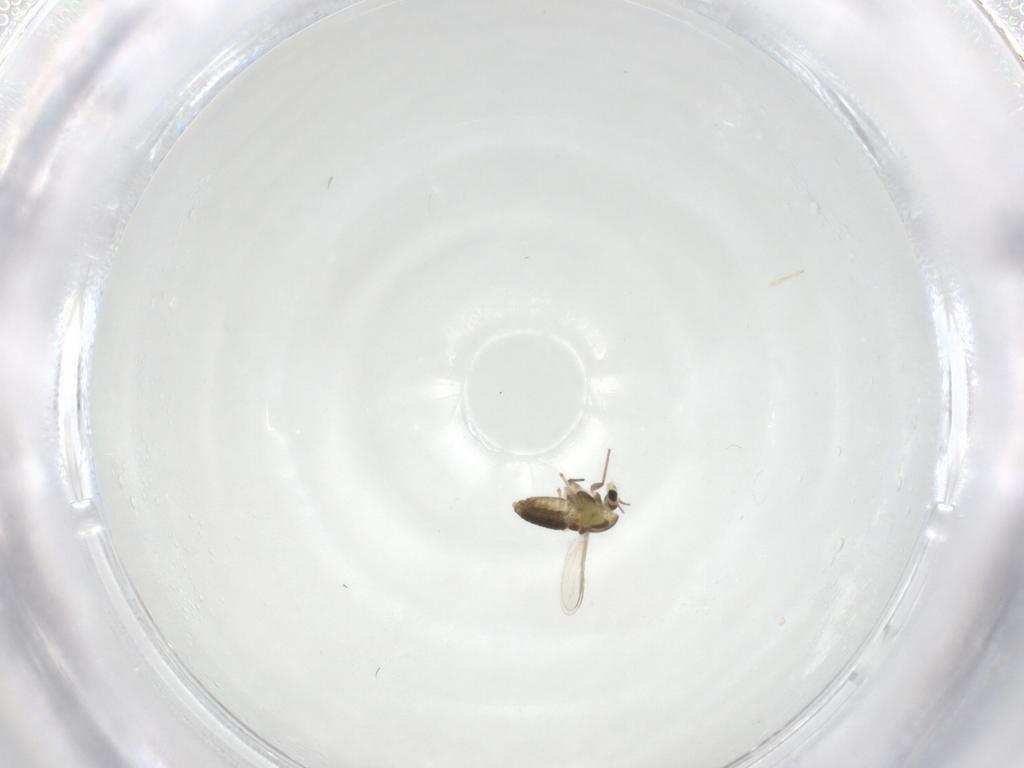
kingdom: Animalia
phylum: Arthropoda
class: Insecta
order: Diptera
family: Chironomidae
